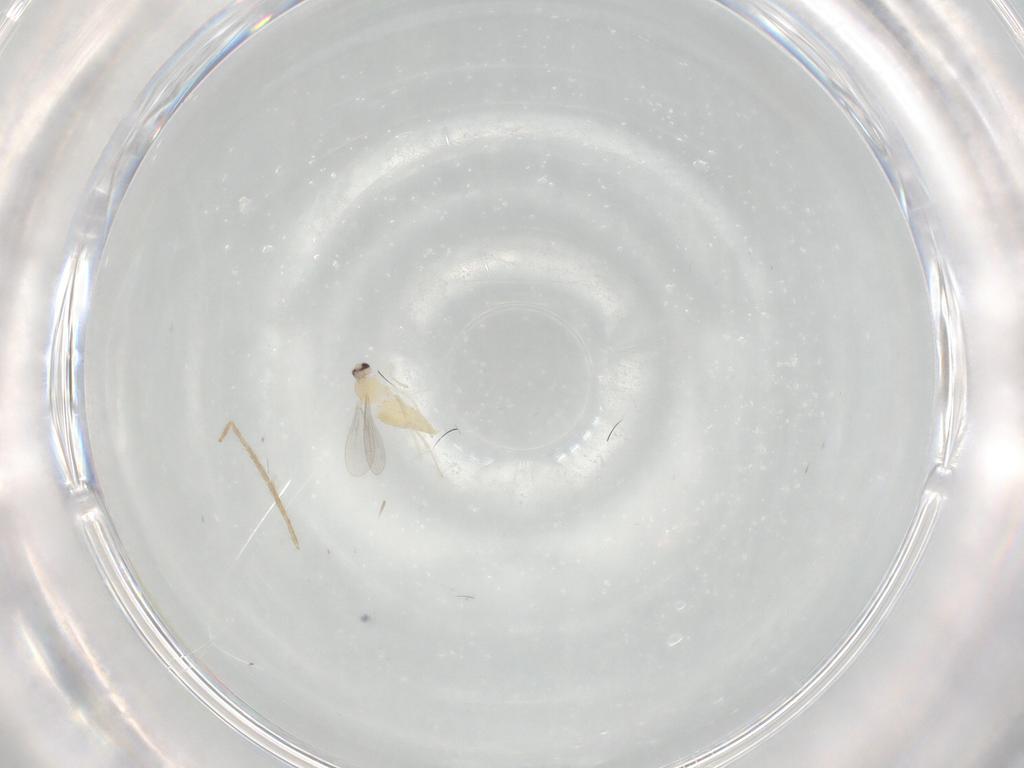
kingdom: Animalia
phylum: Arthropoda
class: Insecta
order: Diptera
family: Cecidomyiidae
